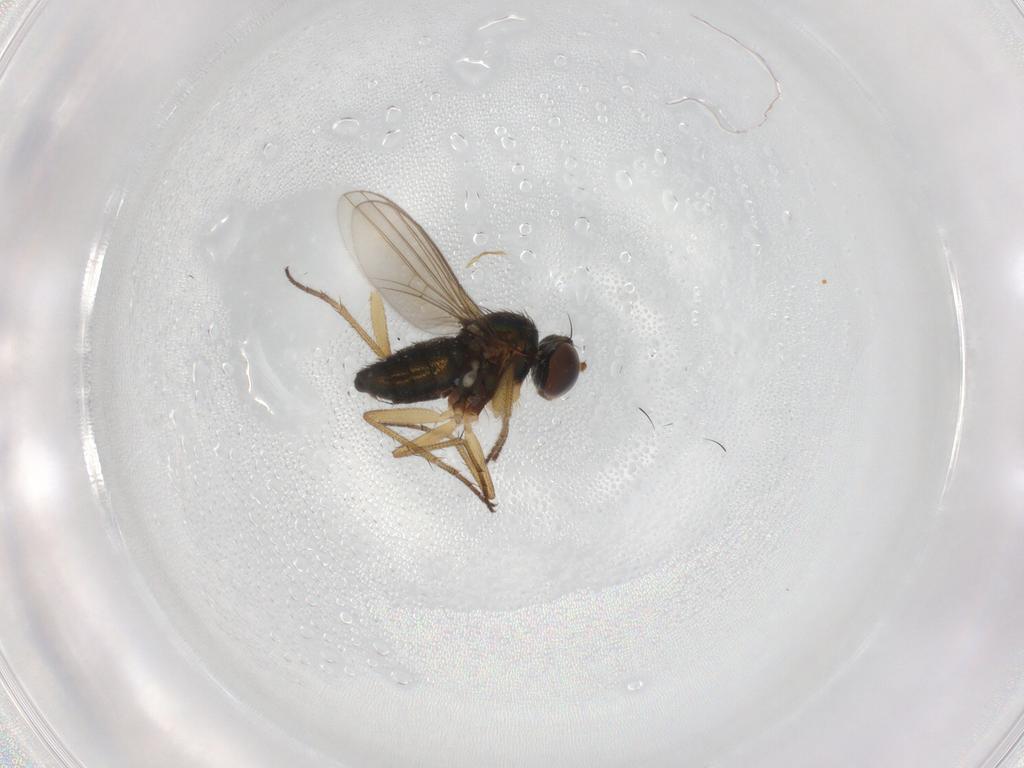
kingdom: Animalia
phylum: Arthropoda
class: Insecta
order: Diptera
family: Dolichopodidae
